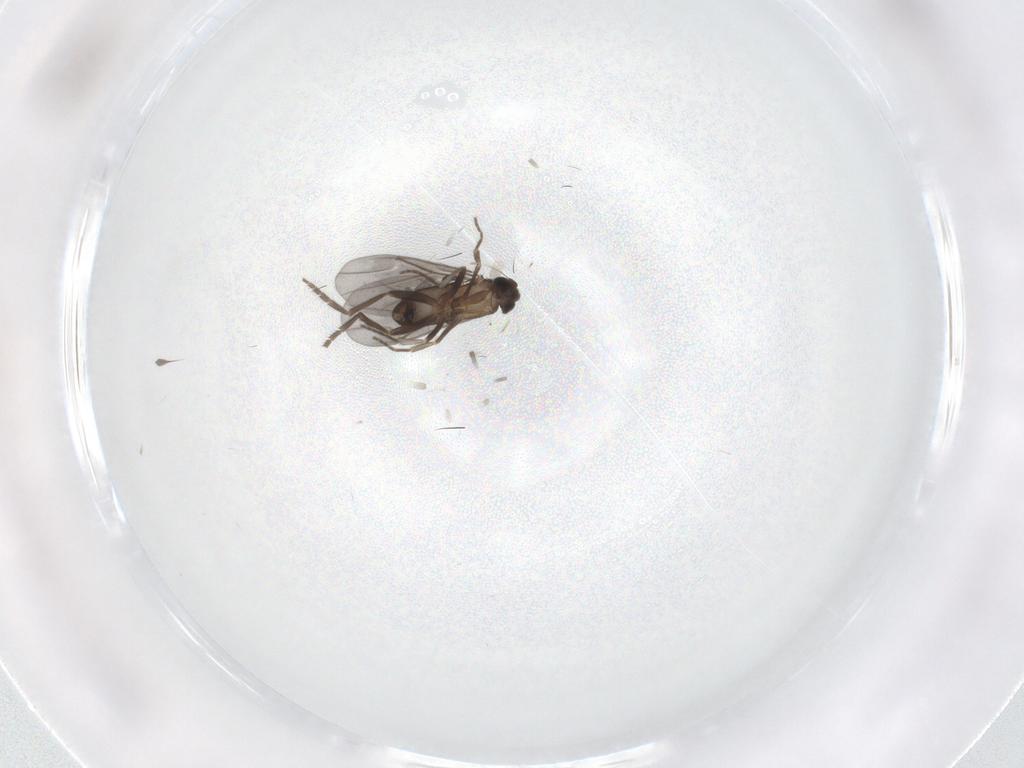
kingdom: Animalia
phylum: Arthropoda
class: Insecta
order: Diptera
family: Phoridae
